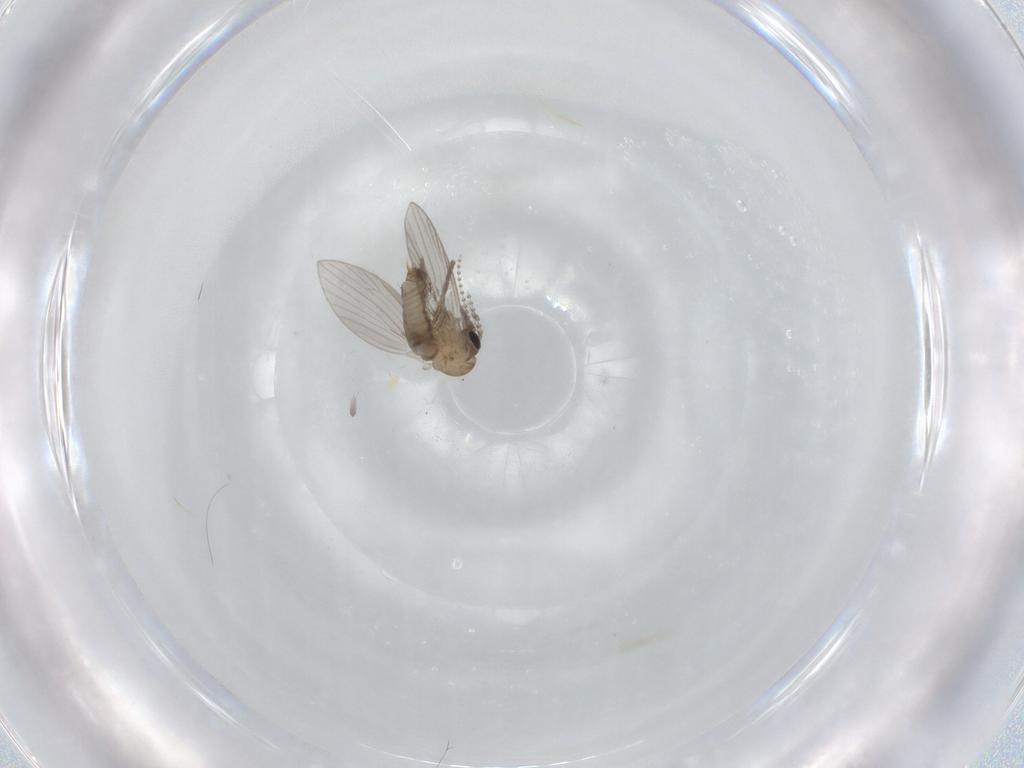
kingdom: Animalia
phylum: Arthropoda
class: Insecta
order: Diptera
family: Psychodidae
